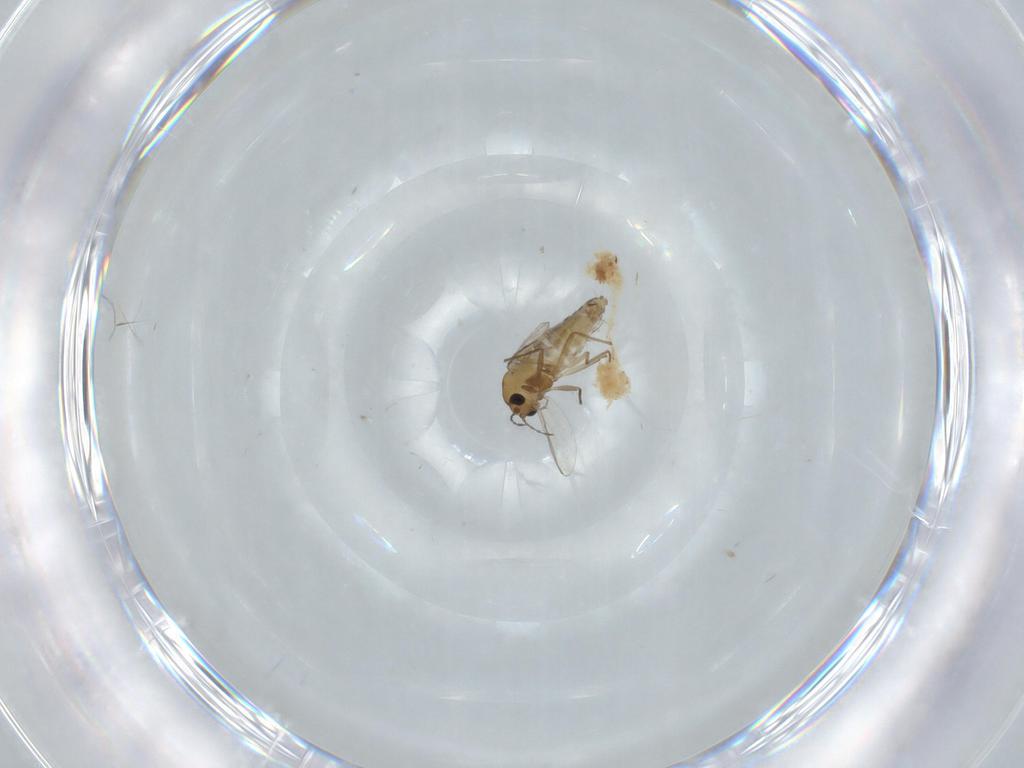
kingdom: Animalia
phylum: Arthropoda
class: Insecta
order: Diptera
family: Chironomidae
